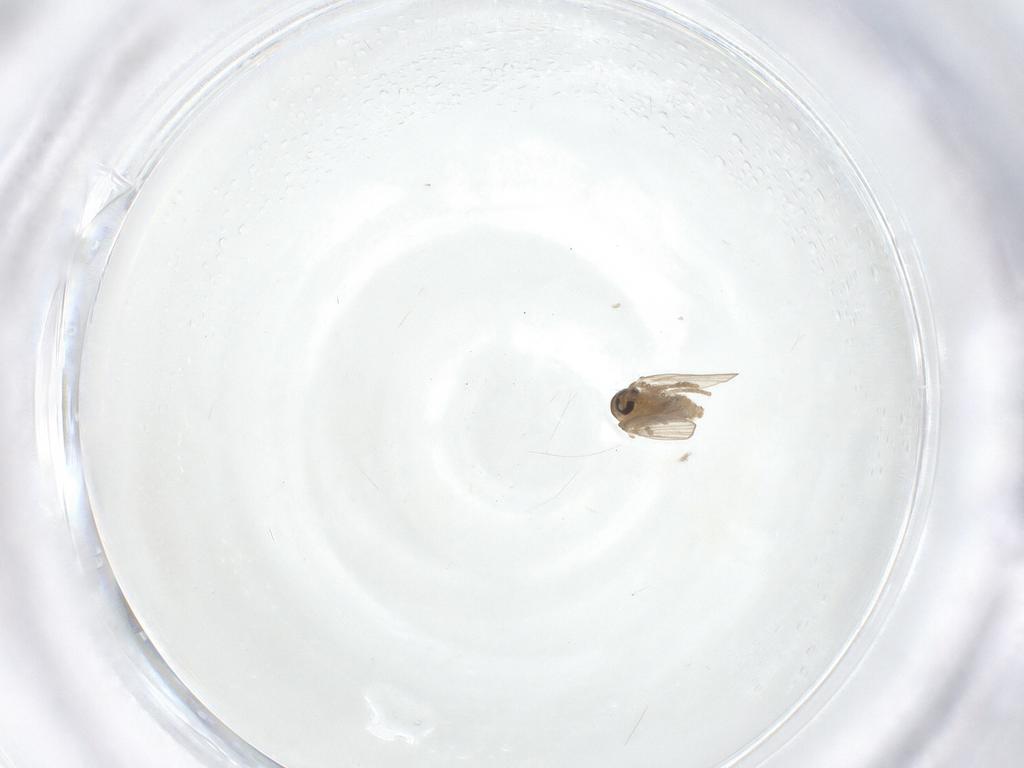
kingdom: Animalia
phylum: Arthropoda
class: Insecta
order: Diptera
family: Psychodidae
